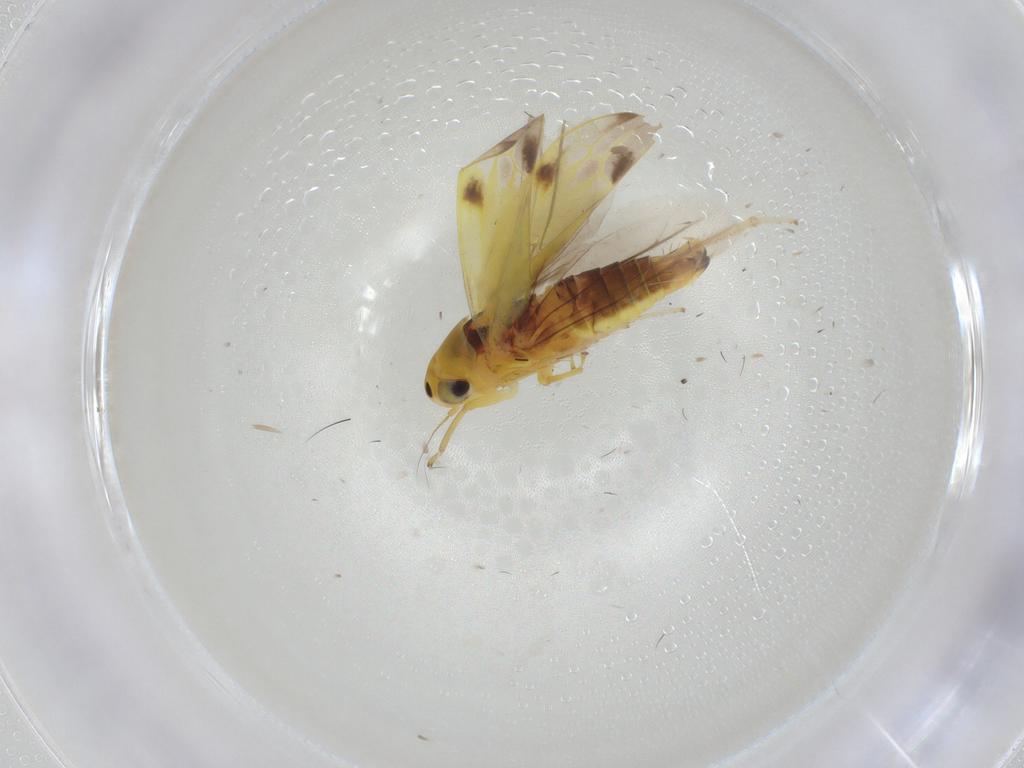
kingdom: Animalia
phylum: Arthropoda
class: Insecta
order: Hemiptera
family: Cicadellidae
